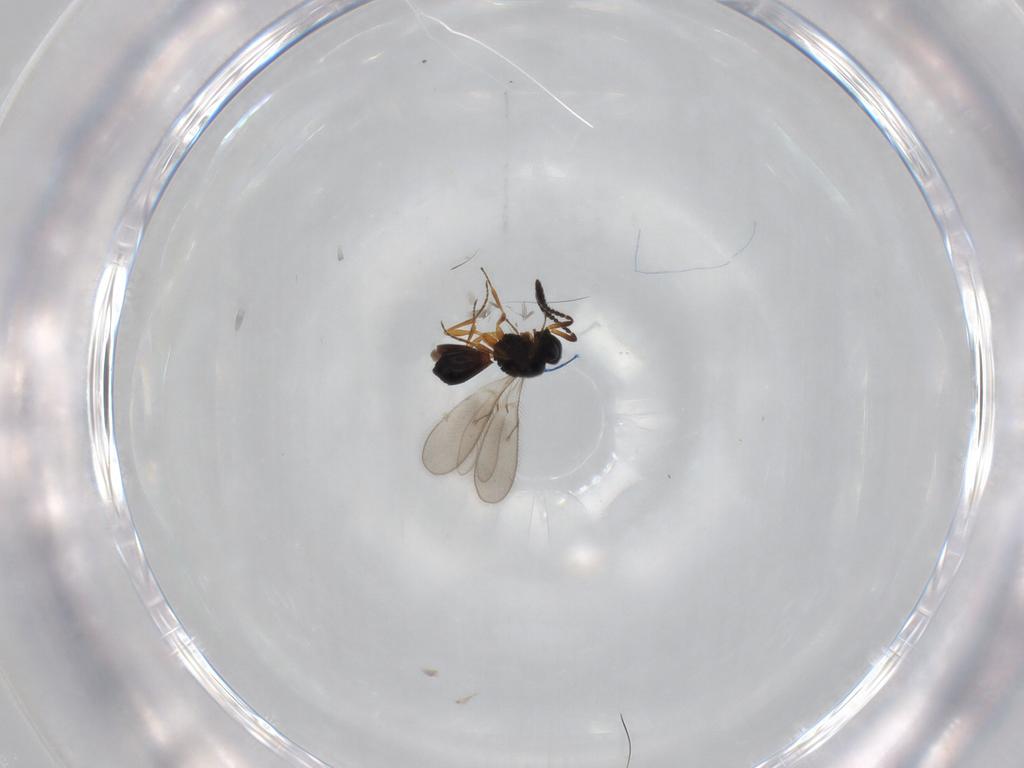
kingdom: Animalia
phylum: Arthropoda
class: Insecta
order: Hymenoptera
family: Scelionidae
